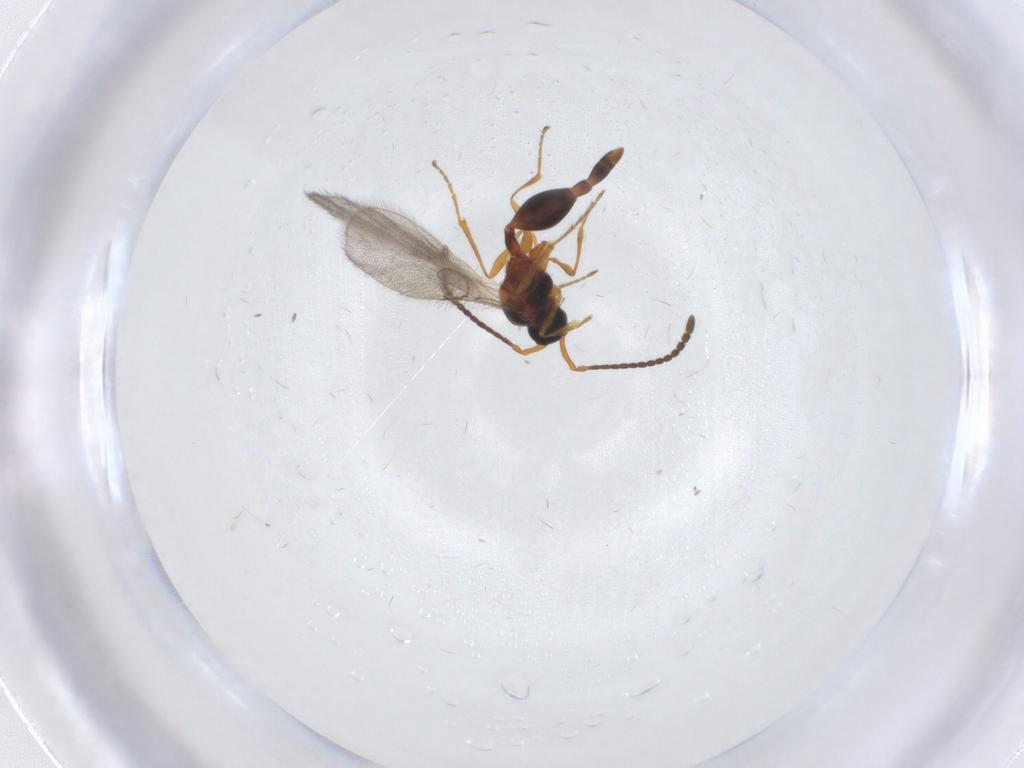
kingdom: Animalia
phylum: Arthropoda
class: Insecta
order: Hymenoptera
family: Diapriidae
